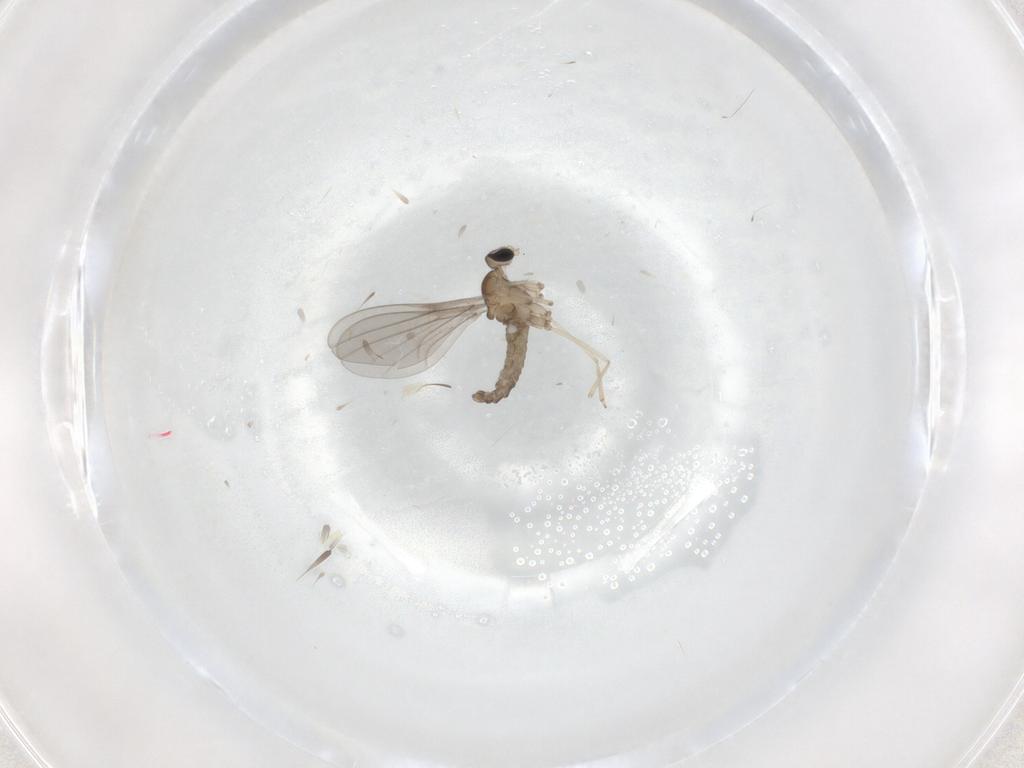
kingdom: Animalia
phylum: Arthropoda
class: Insecta
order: Diptera
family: Cecidomyiidae
